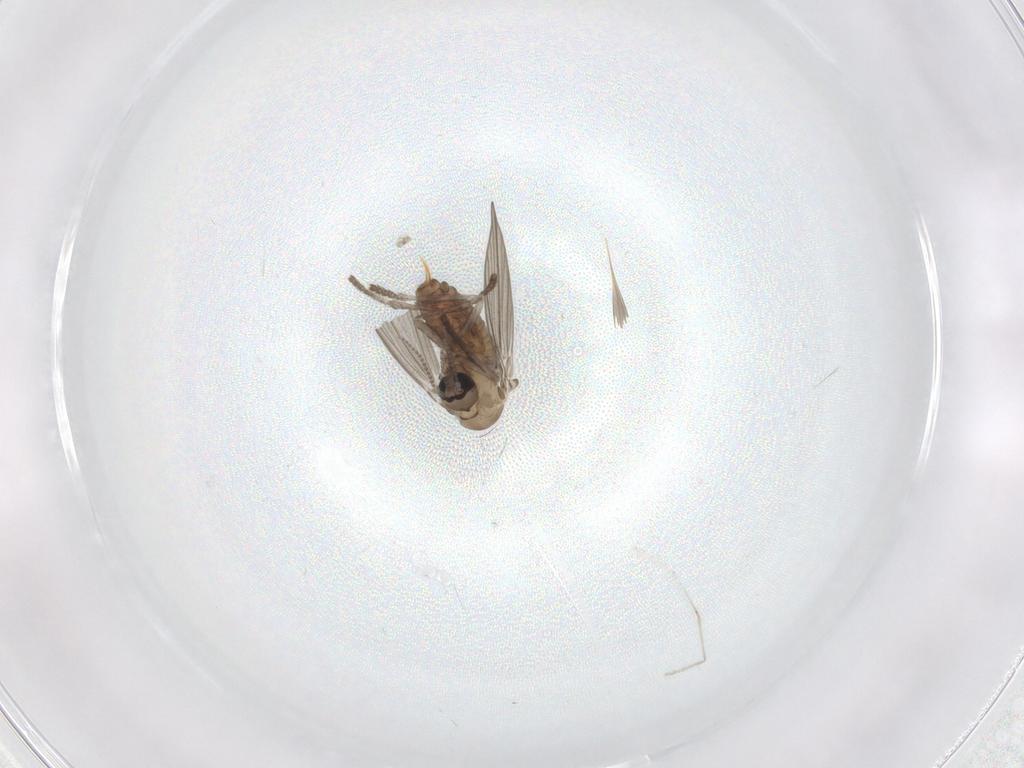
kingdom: Animalia
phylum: Arthropoda
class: Insecta
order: Diptera
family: Psychodidae
